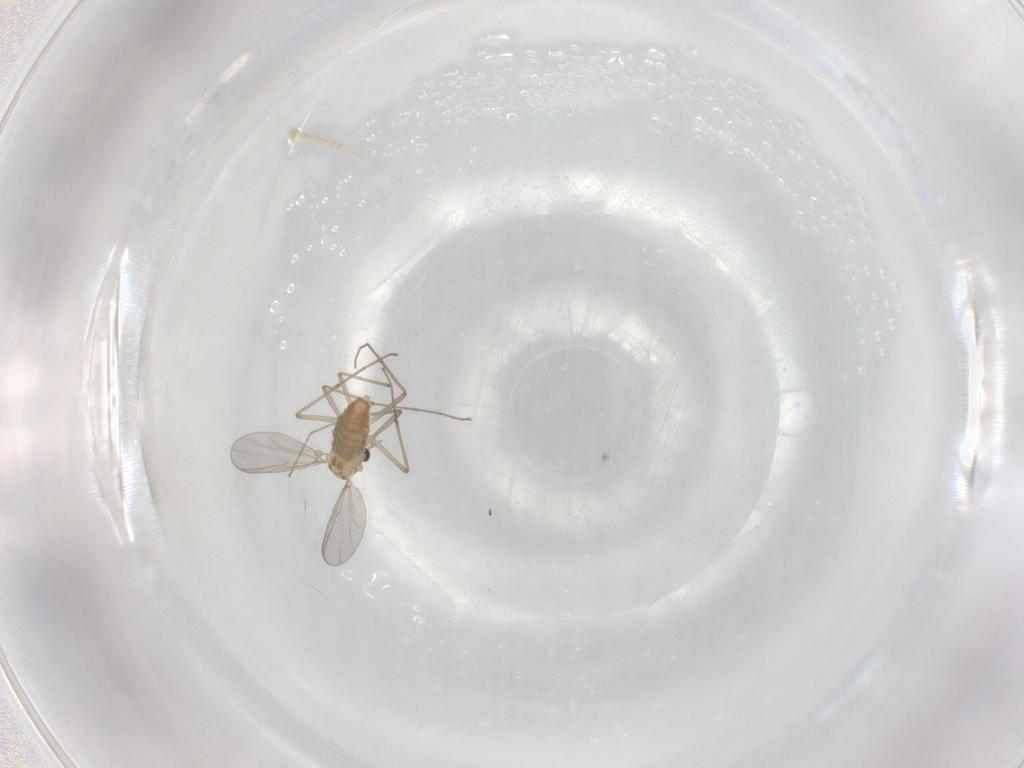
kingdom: Animalia
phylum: Arthropoda
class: Insecta
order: Diptera
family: Chironomidae
